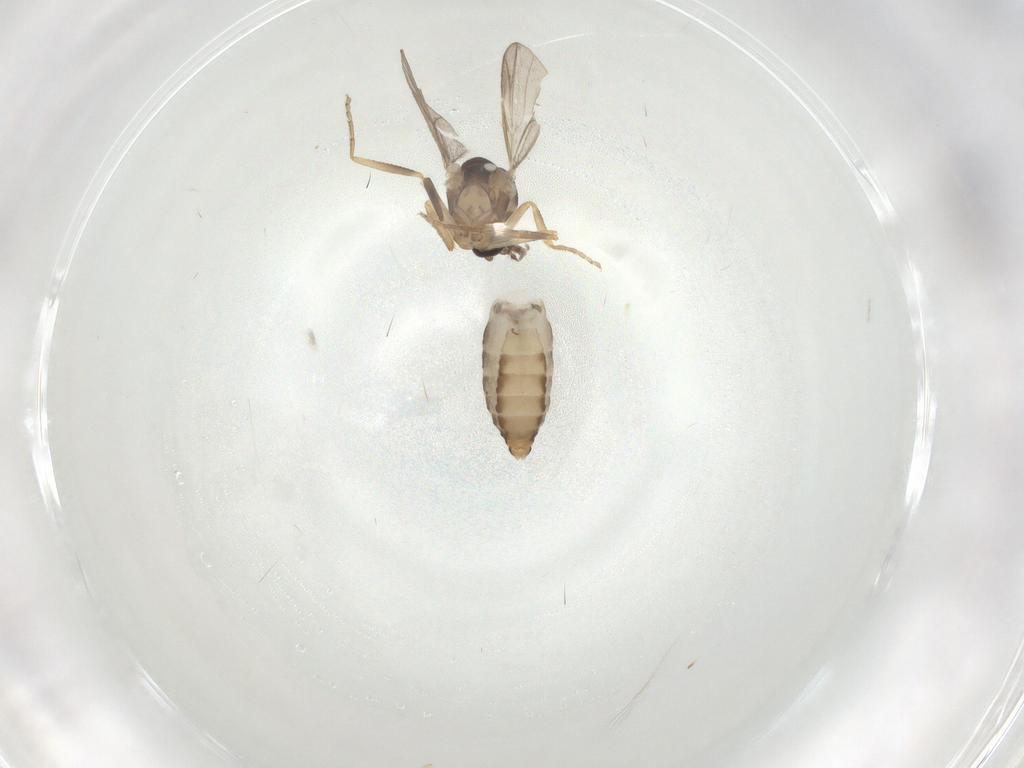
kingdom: Animalia
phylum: Arthropoda
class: Insecta
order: Diptera
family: Ceratopogonidae
